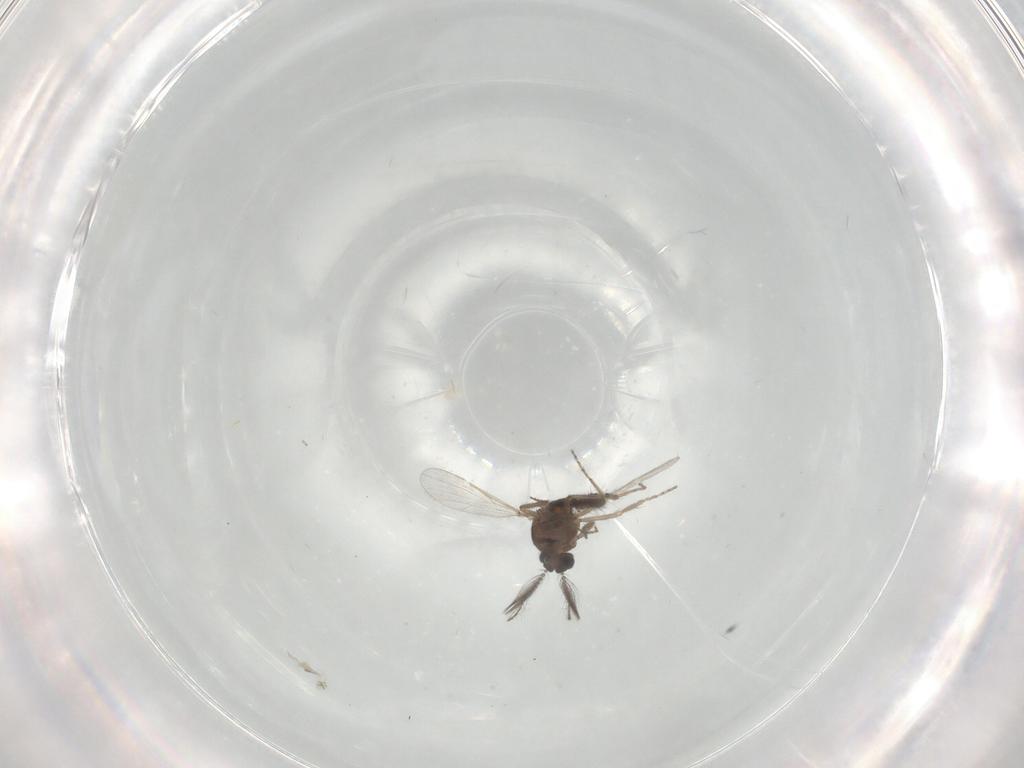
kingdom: Animalia
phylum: Arthropoda
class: Insecta
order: Diptera
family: Ceratopogonidae
